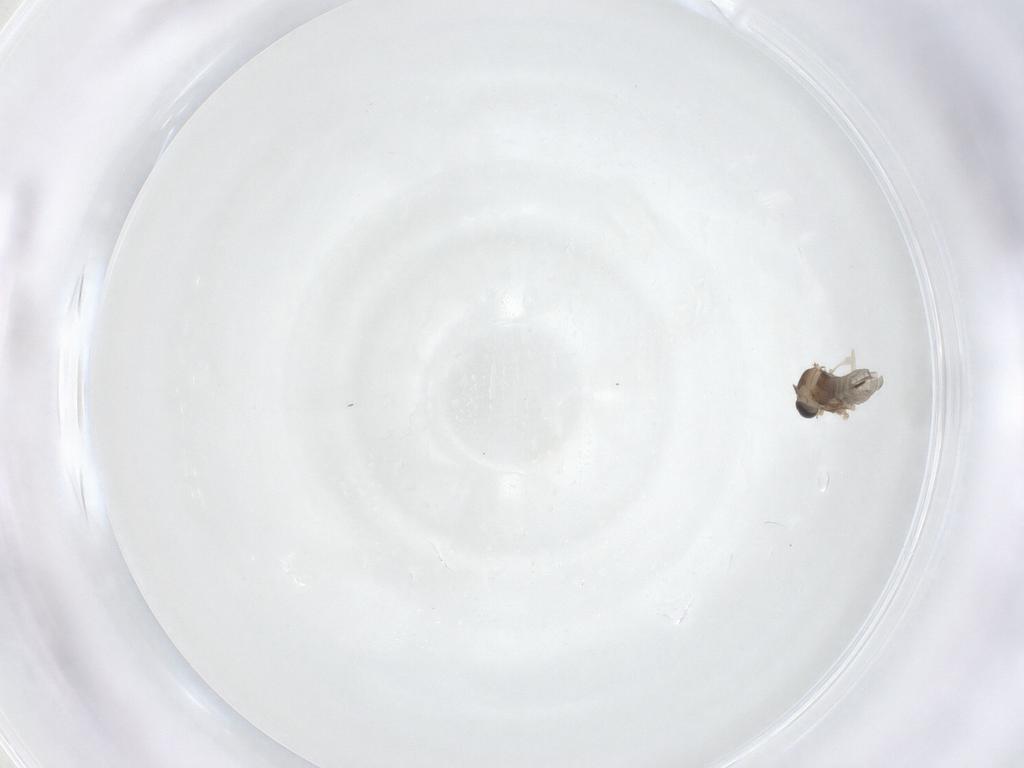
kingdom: Animalia
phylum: Arthropoda
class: Insecta
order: Diptera
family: Cecidomyiidae
